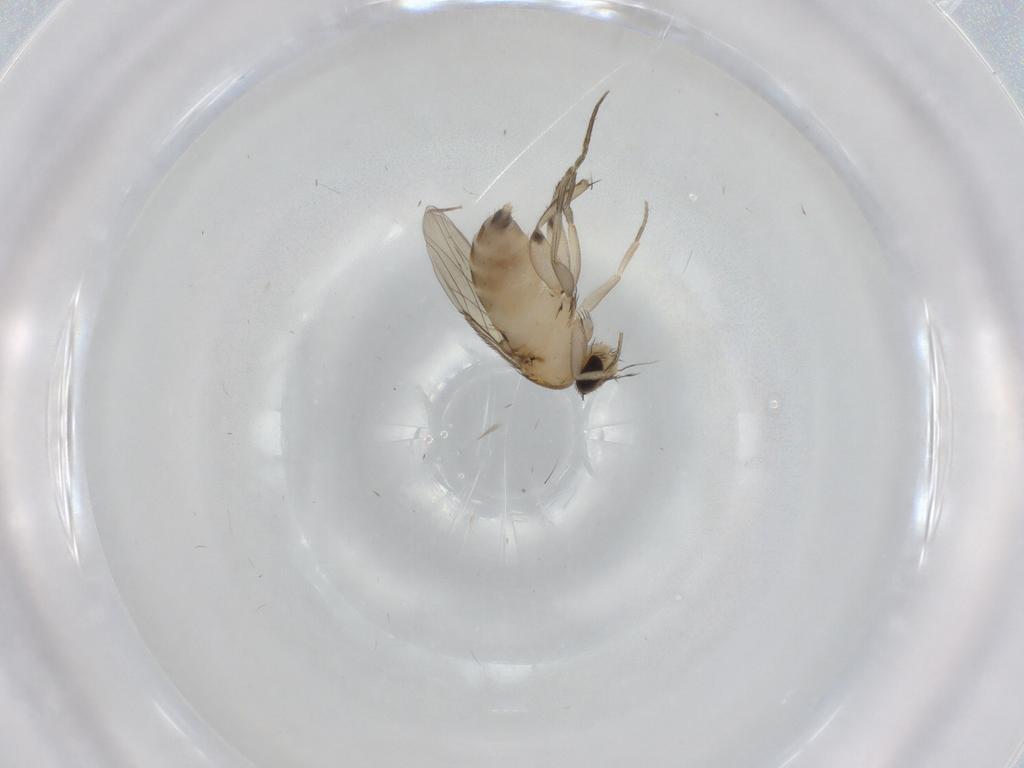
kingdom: Animalia
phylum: Arthropoda
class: Insecta
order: Diptera
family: Phoridae
